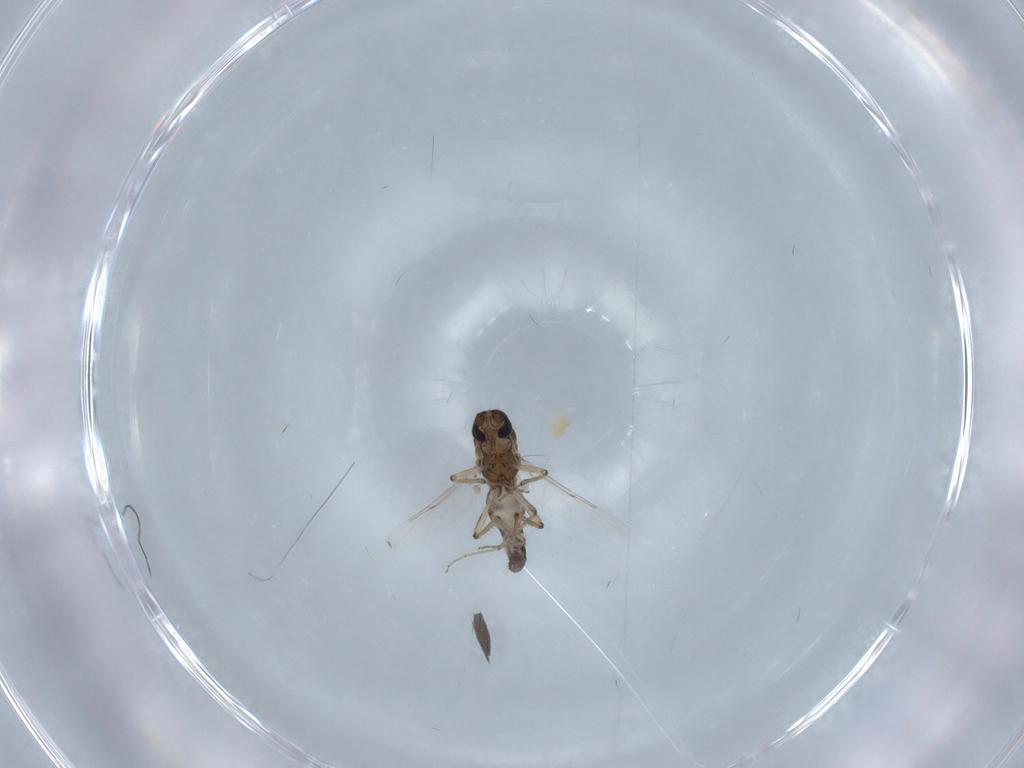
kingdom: Animalia
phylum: Arthropoda
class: Insecta
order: Diptera
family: Ceratopogonidae
